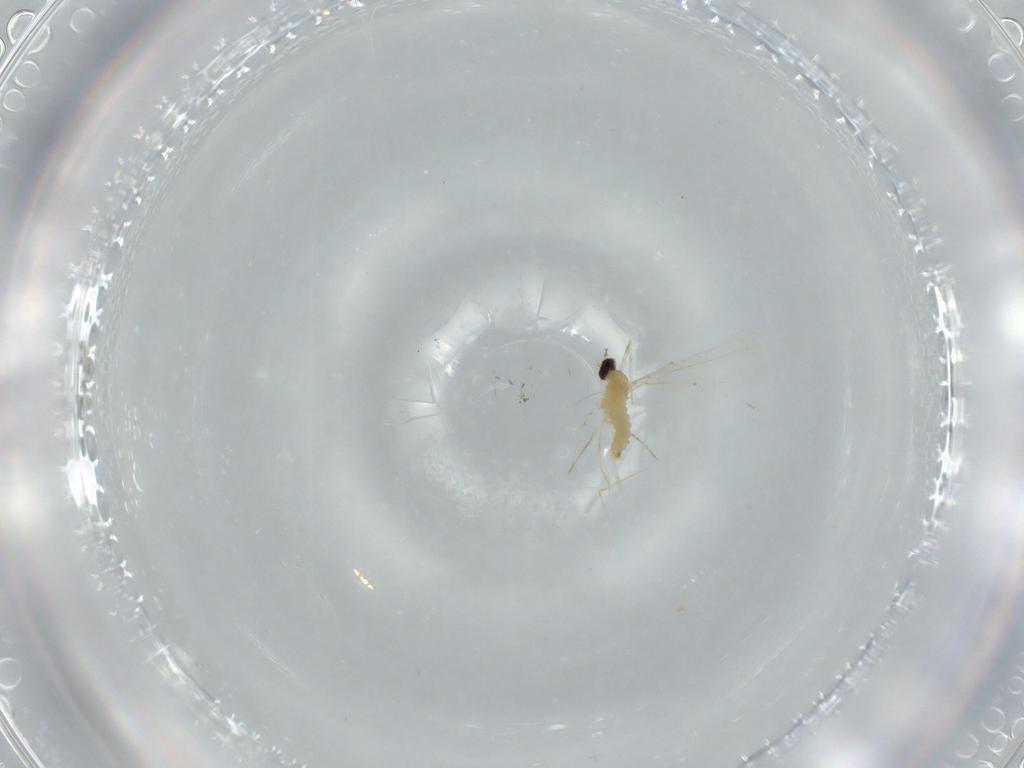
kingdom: Animalia
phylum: Arthropoda
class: Insecta
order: Diptera
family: Cecidomyiidae
